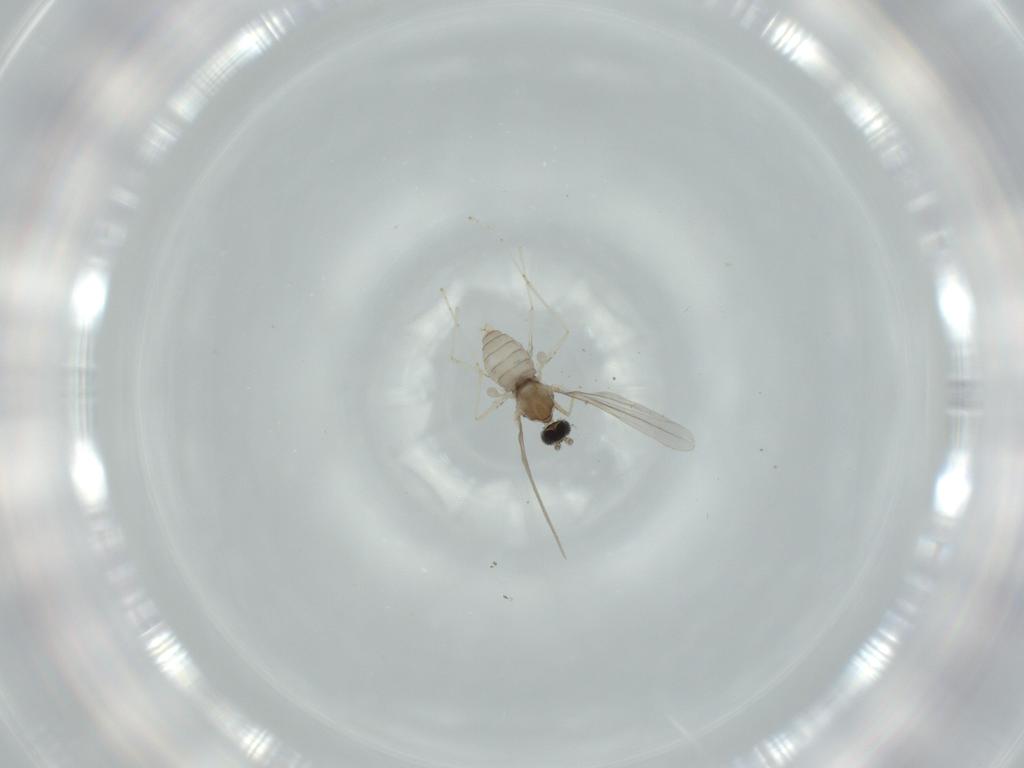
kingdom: Animalia
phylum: Arthropoda
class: Insecta
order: Diptera
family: Cecidomyiidae
